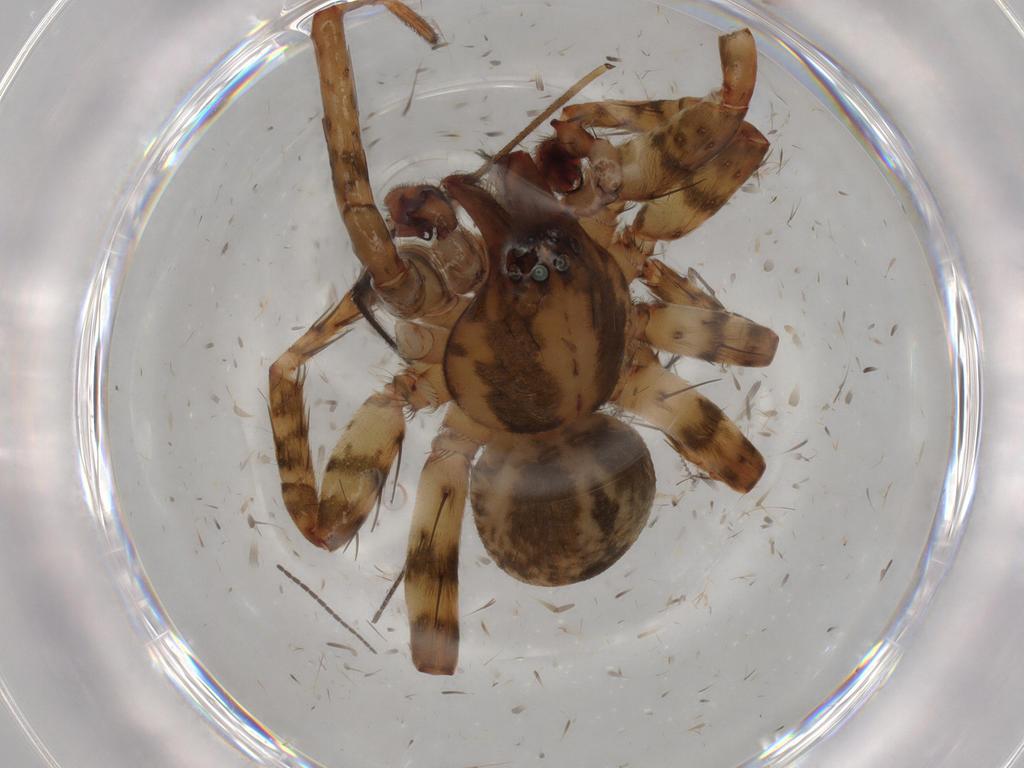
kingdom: Animalia
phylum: Arthropoda
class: Arachnida
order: Araneae
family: Anyphaenidae
